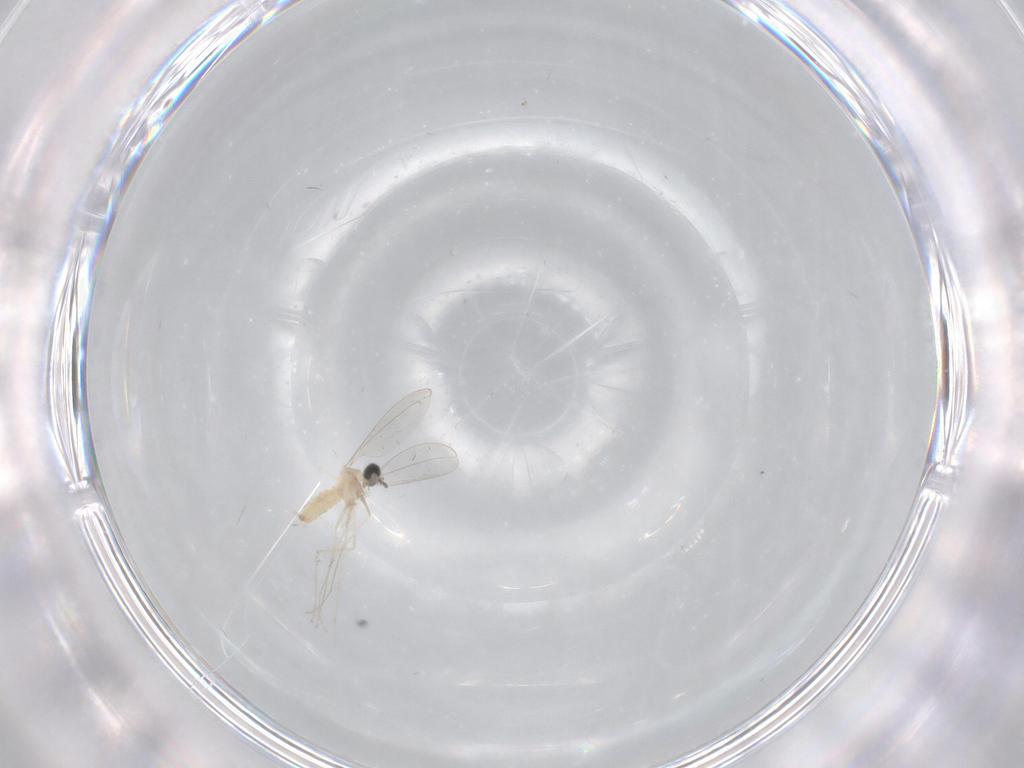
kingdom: Animalia
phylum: Arthropoda
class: Insecta
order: Diptera
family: Cecidomyiidae
